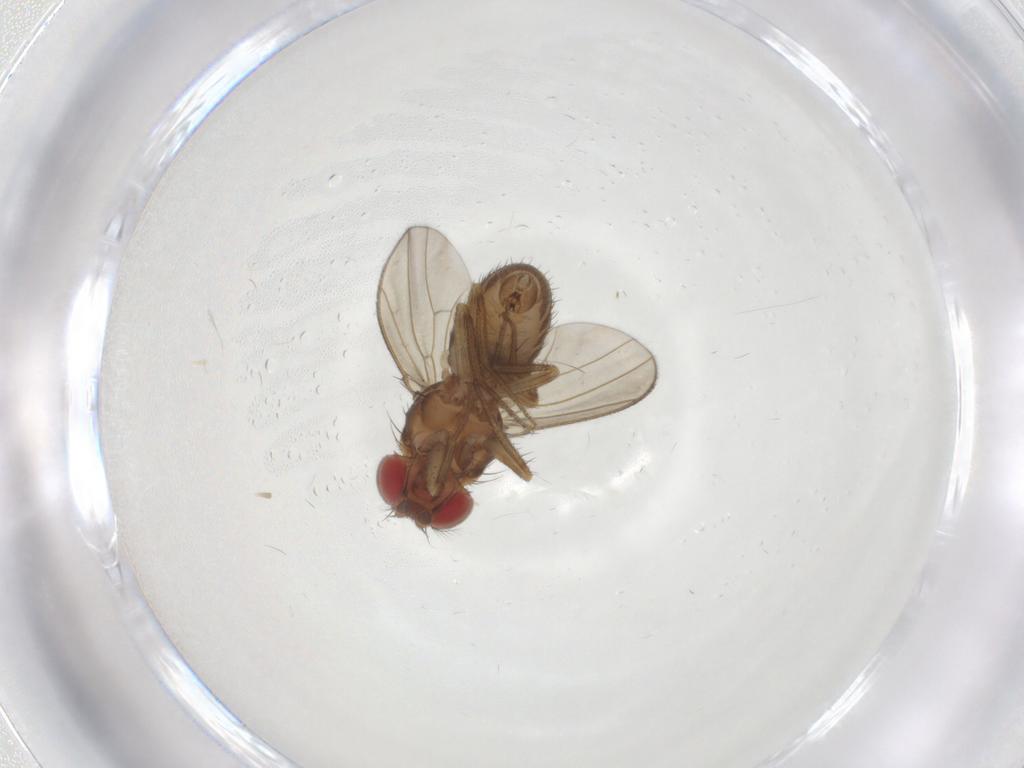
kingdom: Animalia
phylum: Arthropoda
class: Insecta
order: Diptera
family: Drosophilidae
